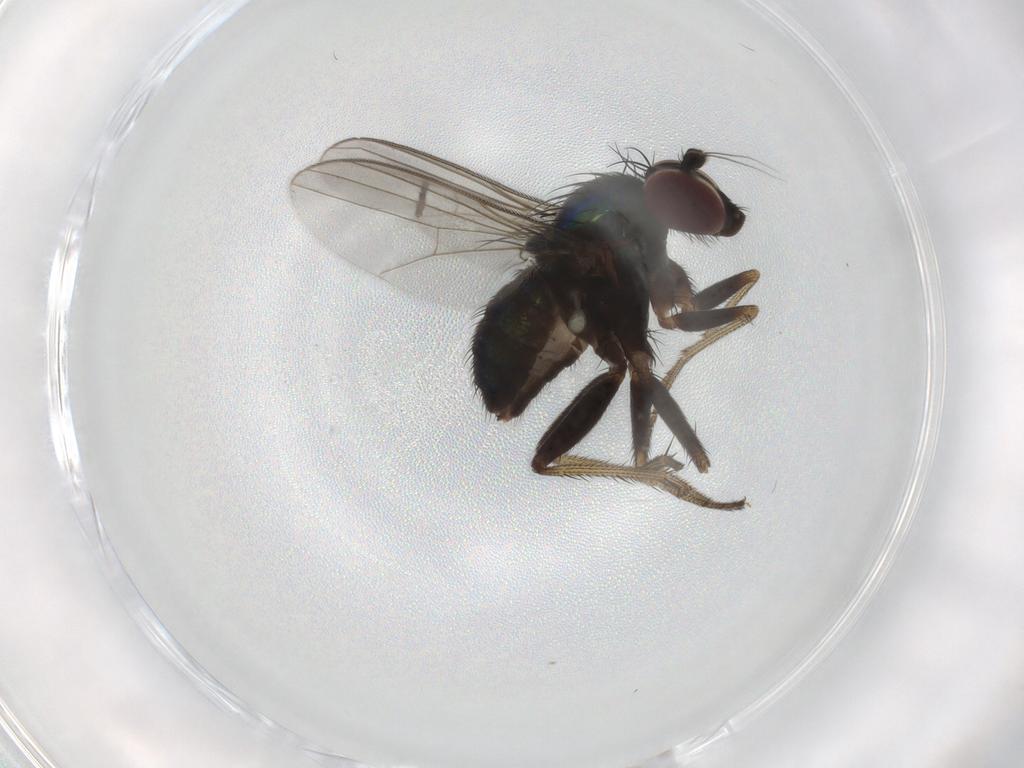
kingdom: Animalia
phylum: Arthropoda
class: Insecta
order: Diptera
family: Dolichopodidae
